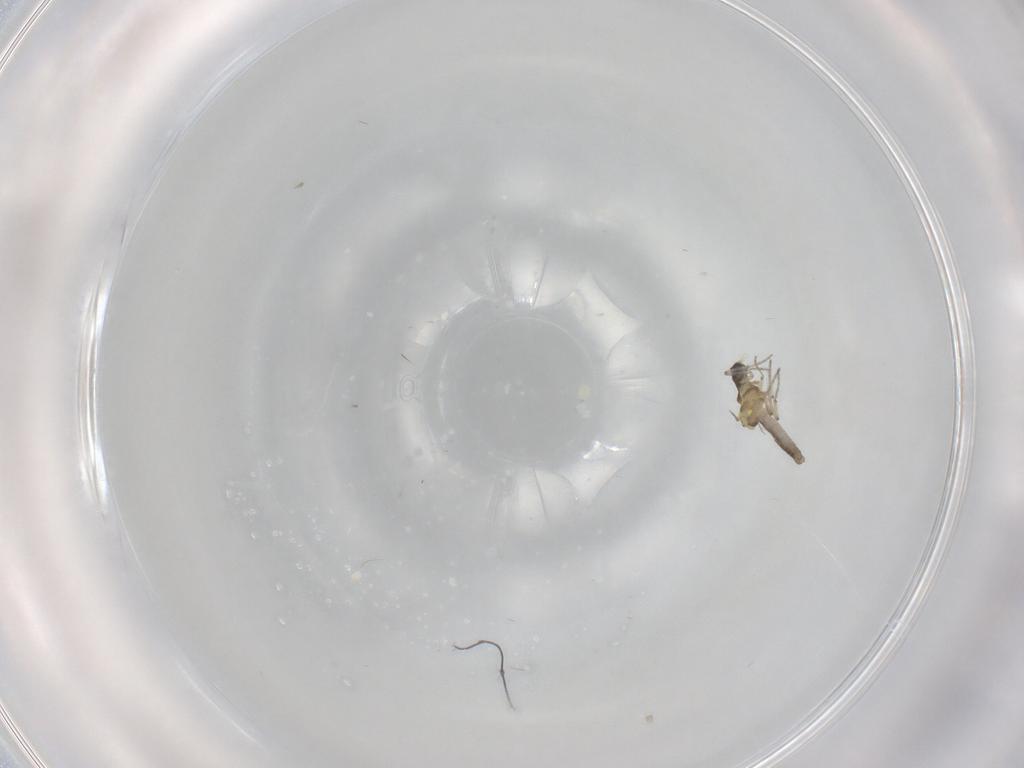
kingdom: Animalia
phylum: Arthropoda
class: Insecta
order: Diptera
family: Ceratopogonidae
